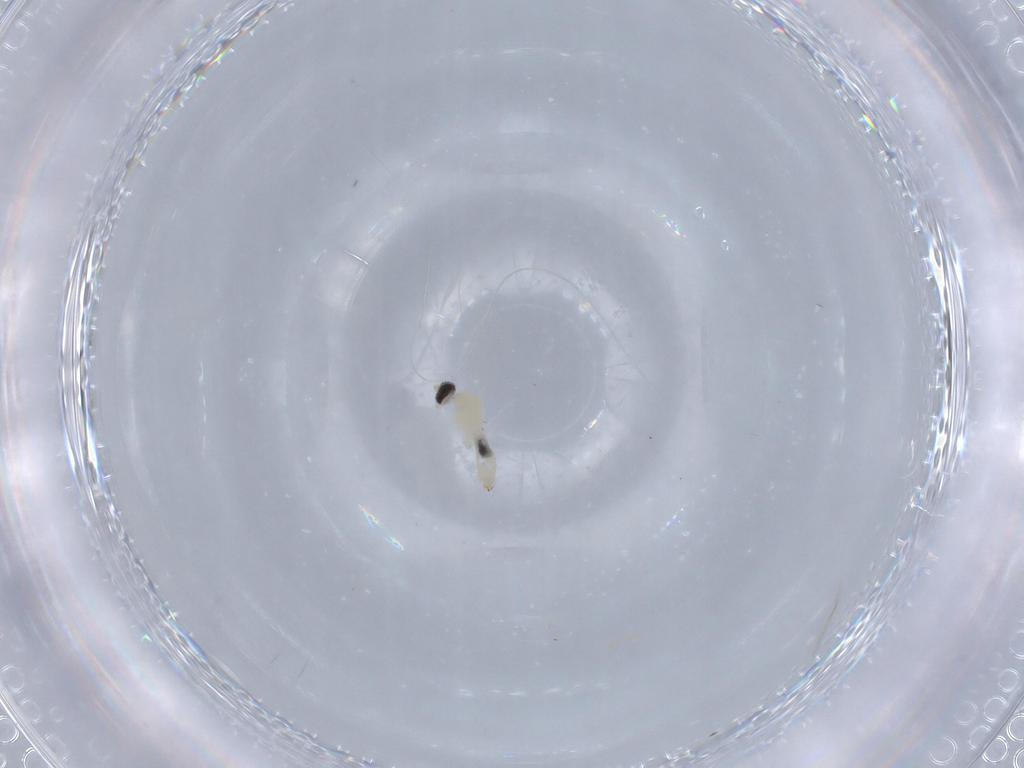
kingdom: Animalia
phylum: Arthropoda
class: Insecta
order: Diptera
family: Cecidomyiidae
